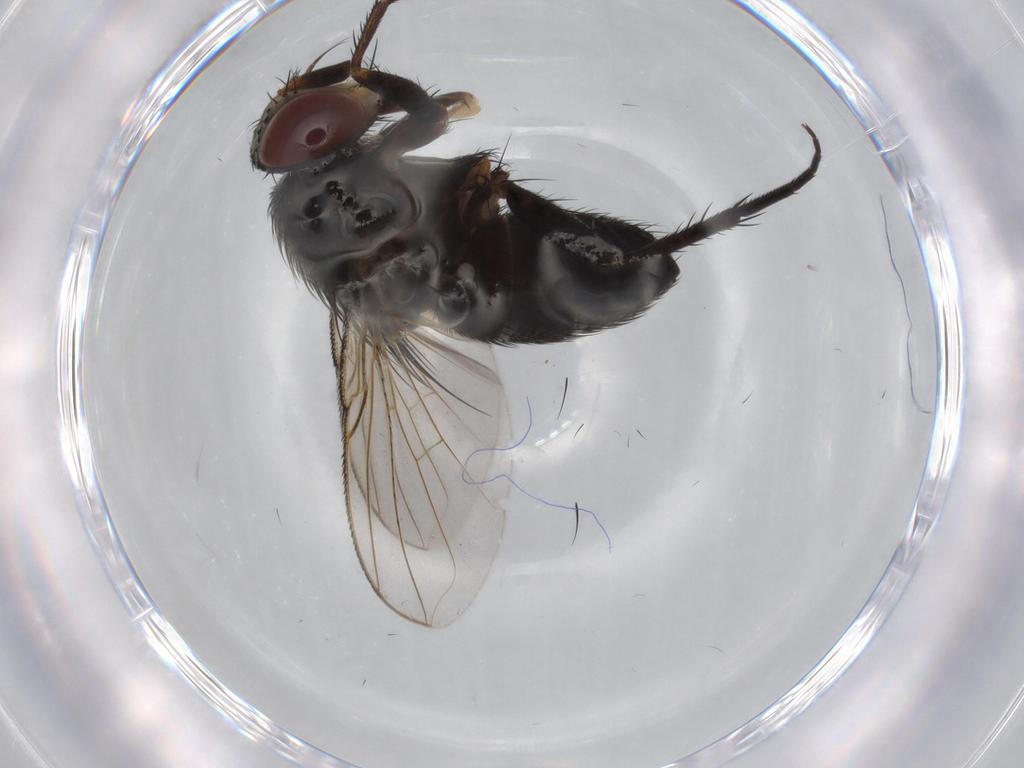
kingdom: Animalia
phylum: Arthropoda
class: Insecta
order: Diptera
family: Tachinidae
